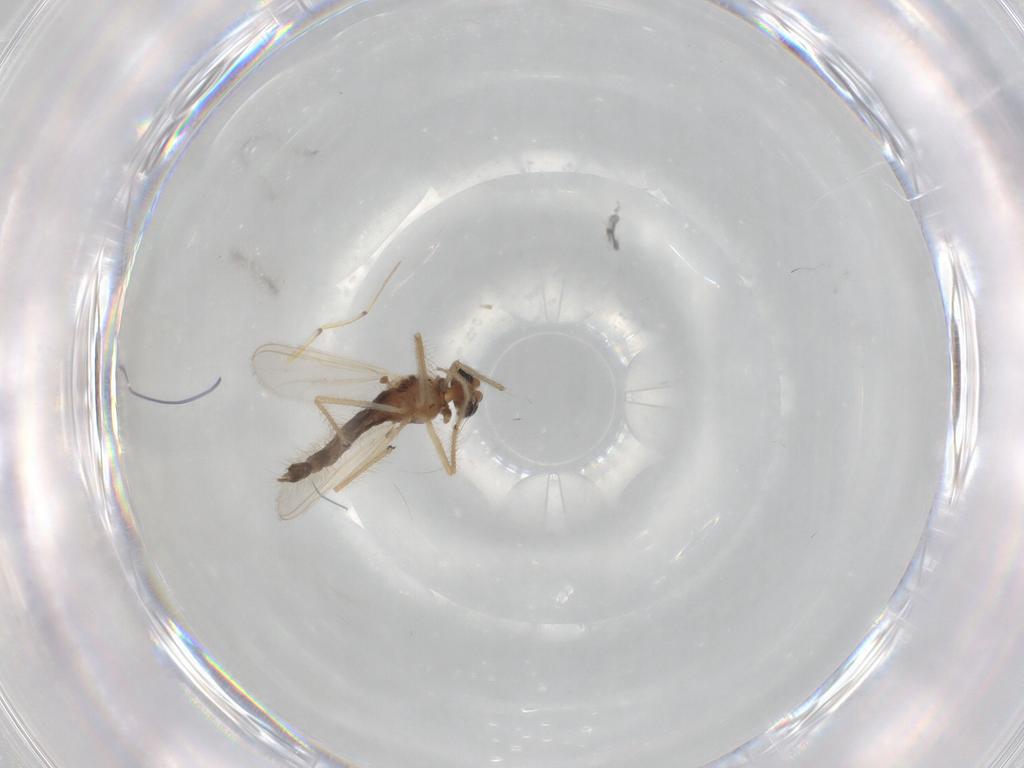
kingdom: Animalia
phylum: Arthropoda
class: Insecta
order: Diptera
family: Chironomidae
